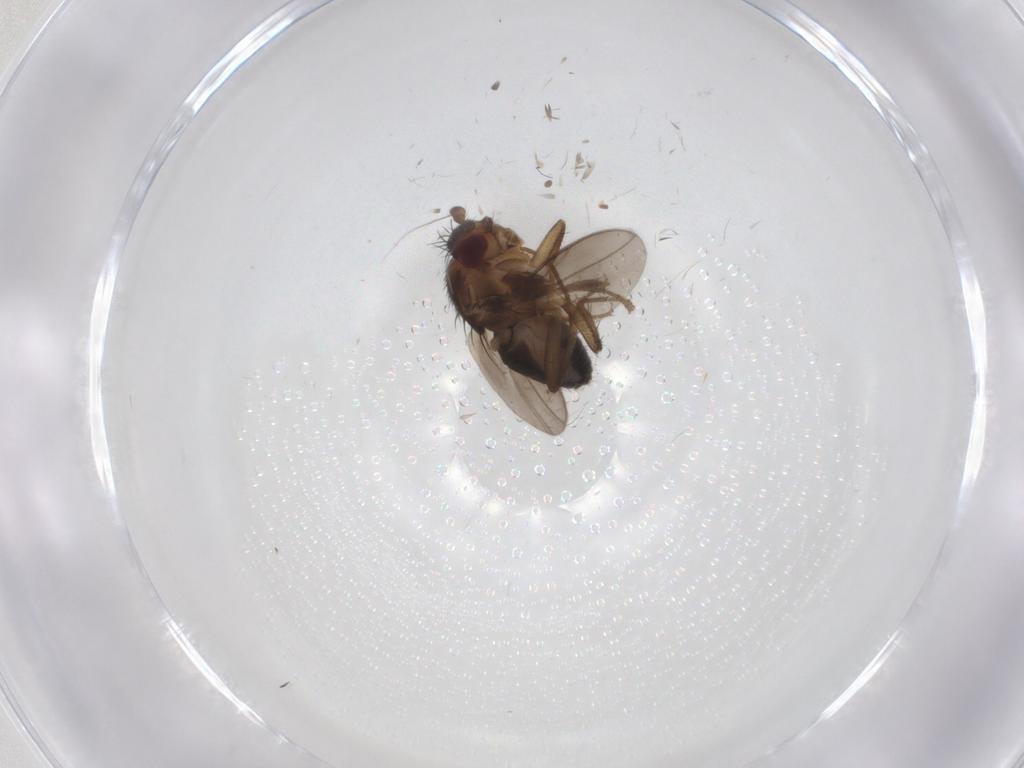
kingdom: Animalia
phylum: Arthropoda
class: Insecta
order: Diptera
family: Sphaeroceridae
